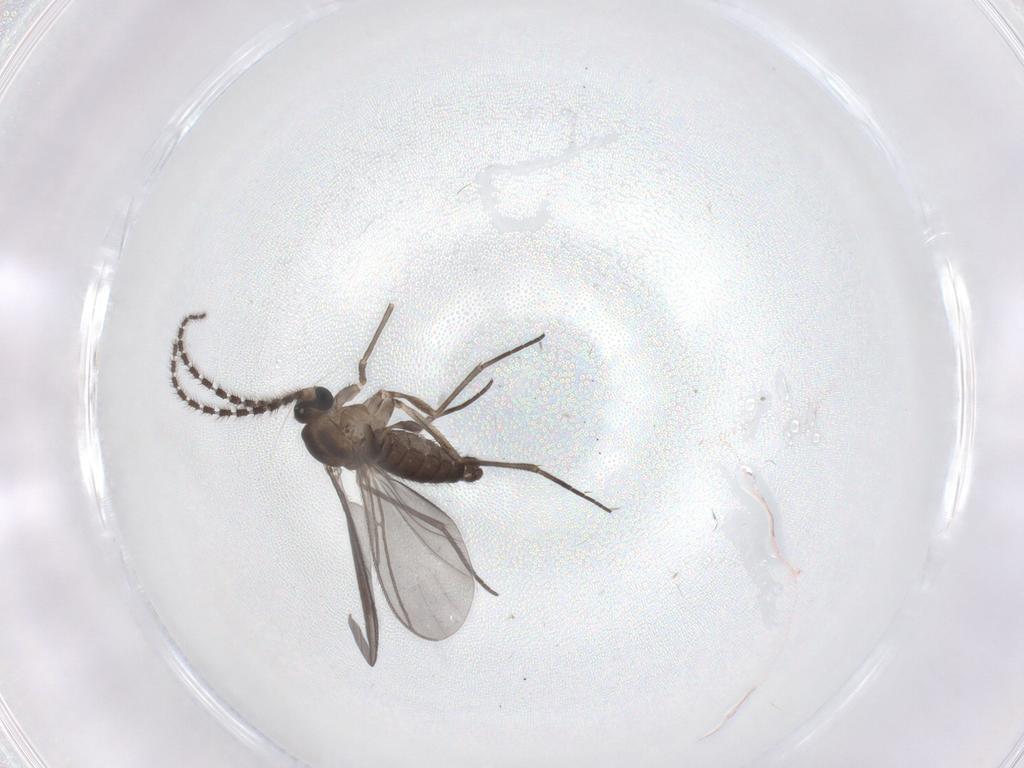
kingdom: Animalia
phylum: Arthropoda
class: Insecta
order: Diptera
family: Sciaridae
